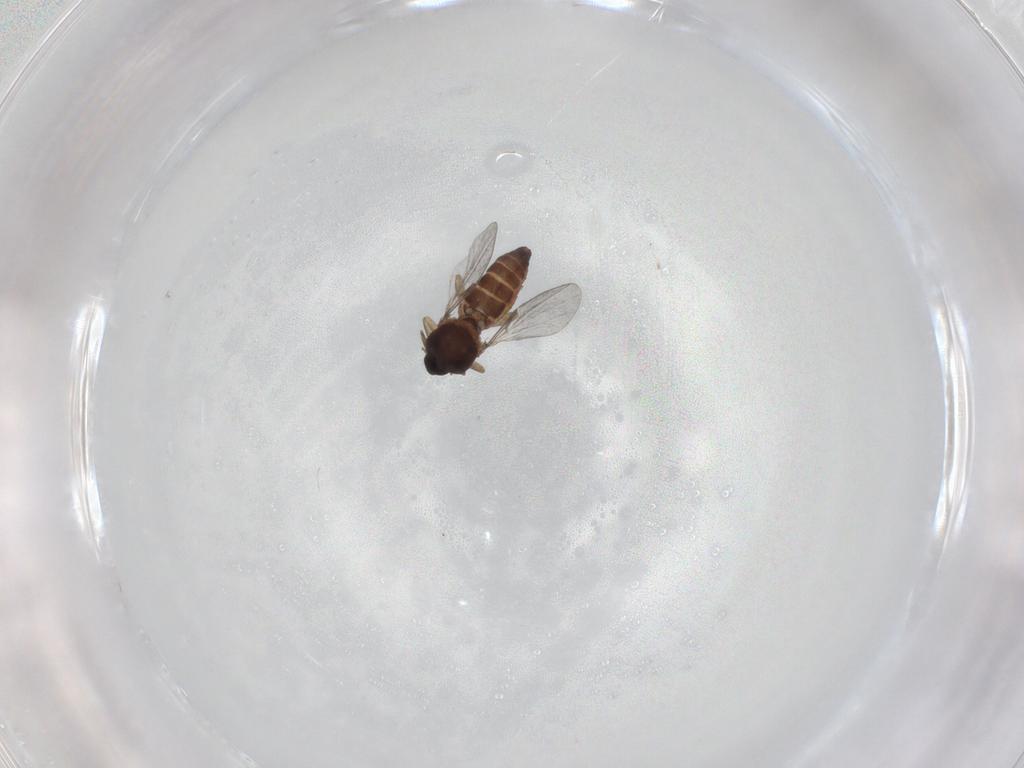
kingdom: Animalia
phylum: Arthropoda
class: Insecta
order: Diptera
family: Ceratopogonidae
